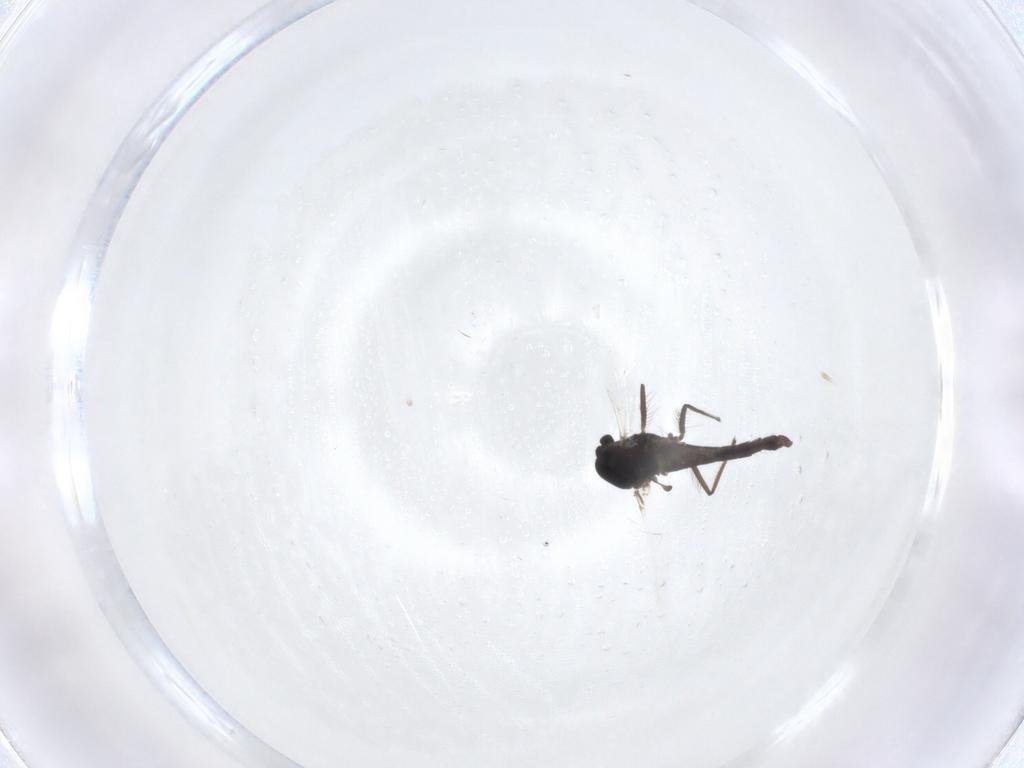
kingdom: Animalia
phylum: Arthropoda
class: Insecta
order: Diptera
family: Chironomidae
